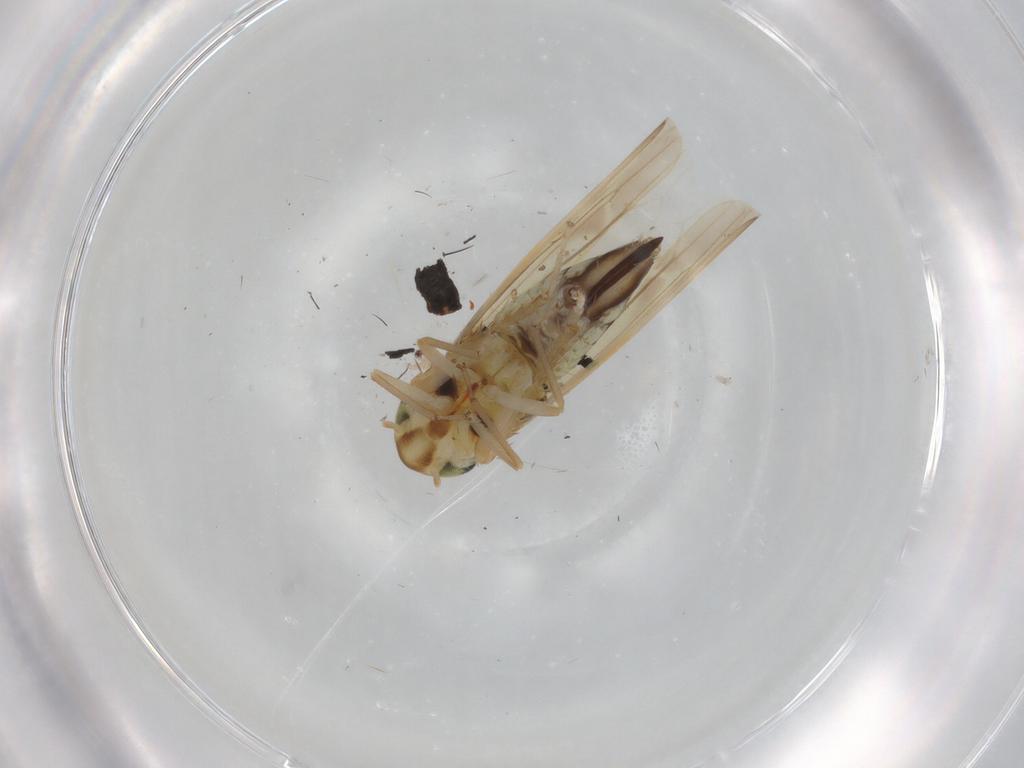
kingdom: Animalia
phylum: Arthropoda
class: Insecta
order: Hemiptera
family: Cicadellidae
